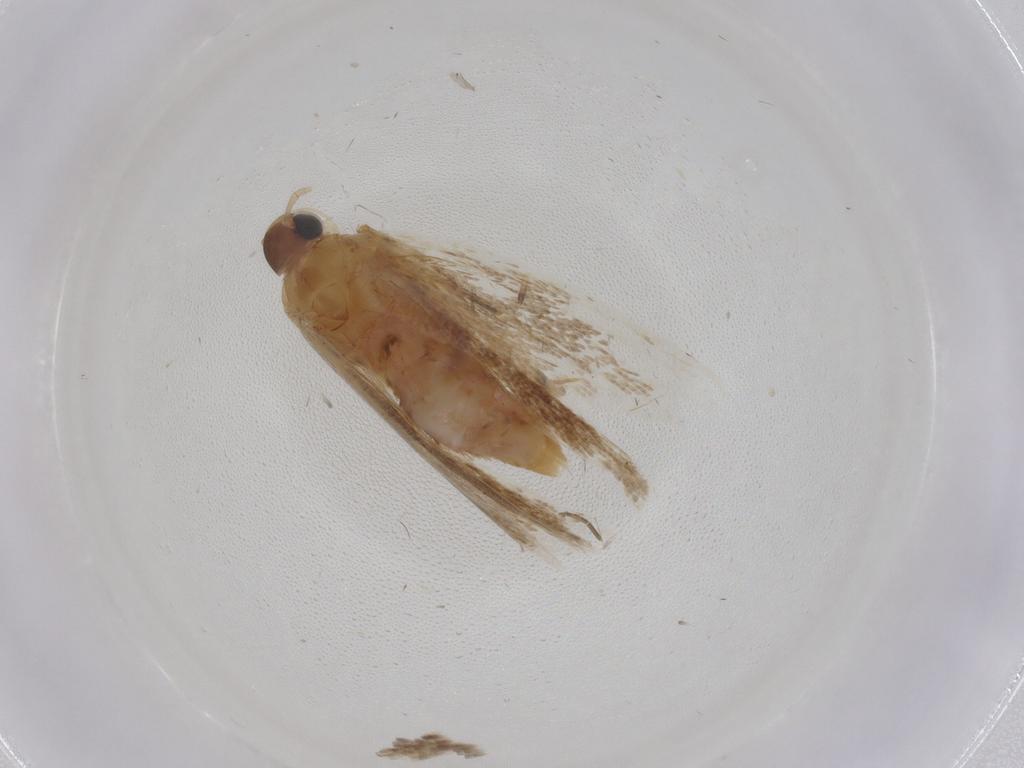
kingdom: Animalia
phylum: Arthropoda
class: Insecta
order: Lepidoptera
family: Gelechiidae
